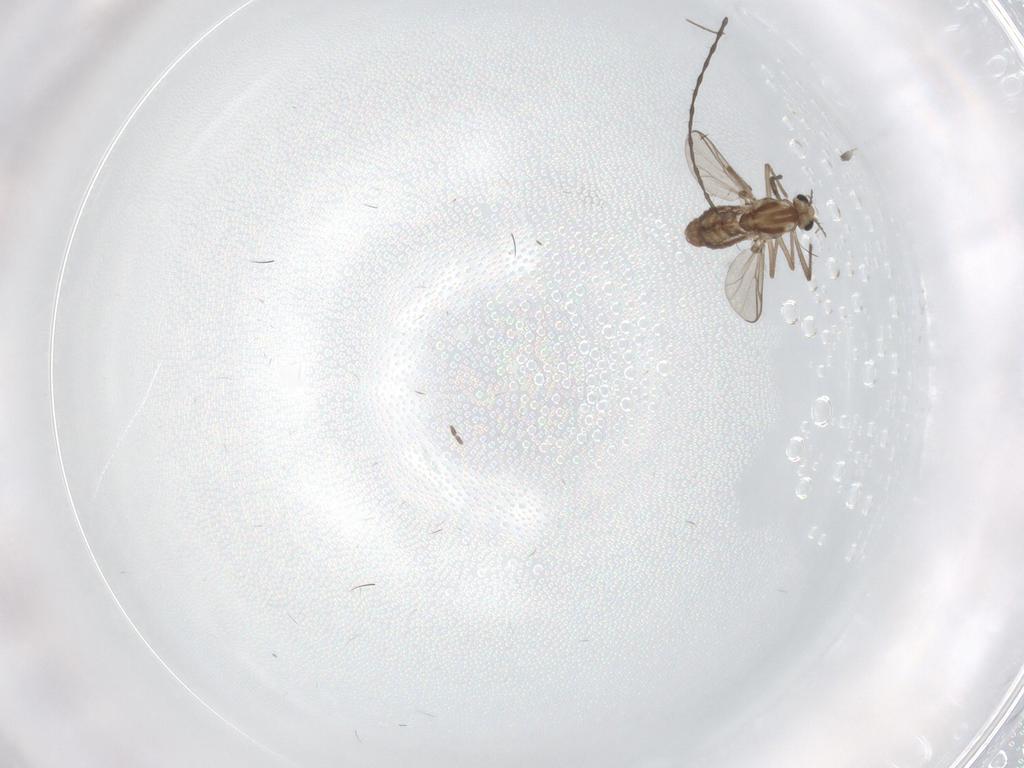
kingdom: Animalia
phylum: Arthropoda
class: Insecta
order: Diptera
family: Limoniidae
